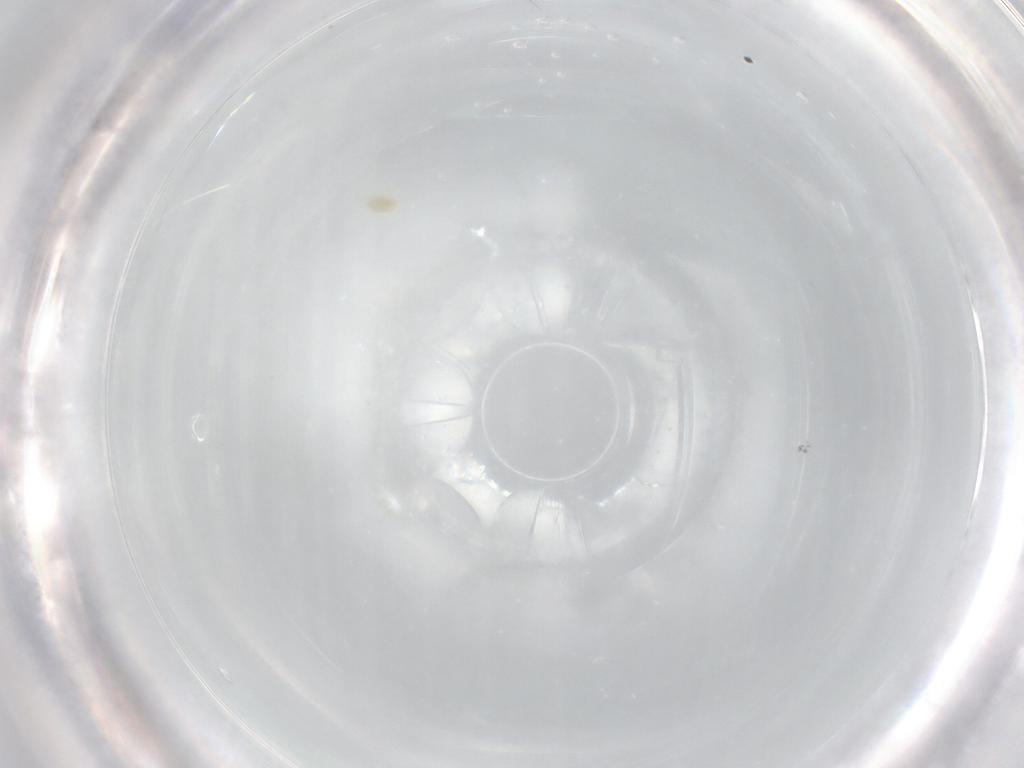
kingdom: Animalia
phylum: Arthropoda
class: Arachnida
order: Trombidiformes
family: Eupodidae
